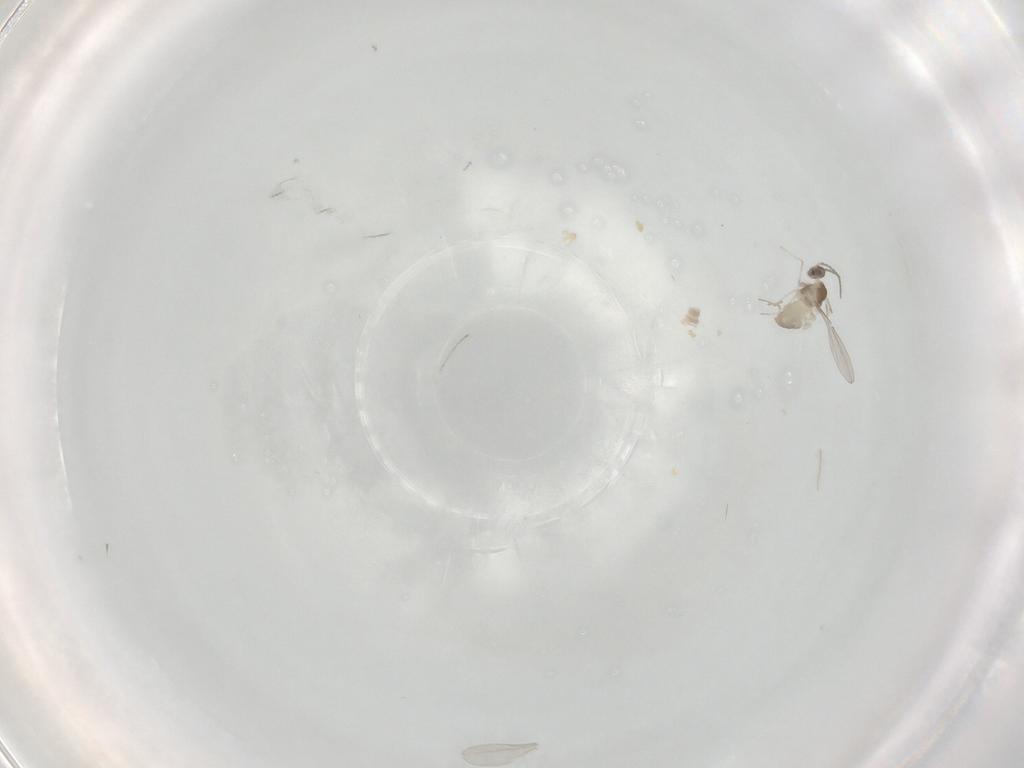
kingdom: Animalia
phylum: Arthropoda
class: Insecta
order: Diptera
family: Cecidomyiidae
